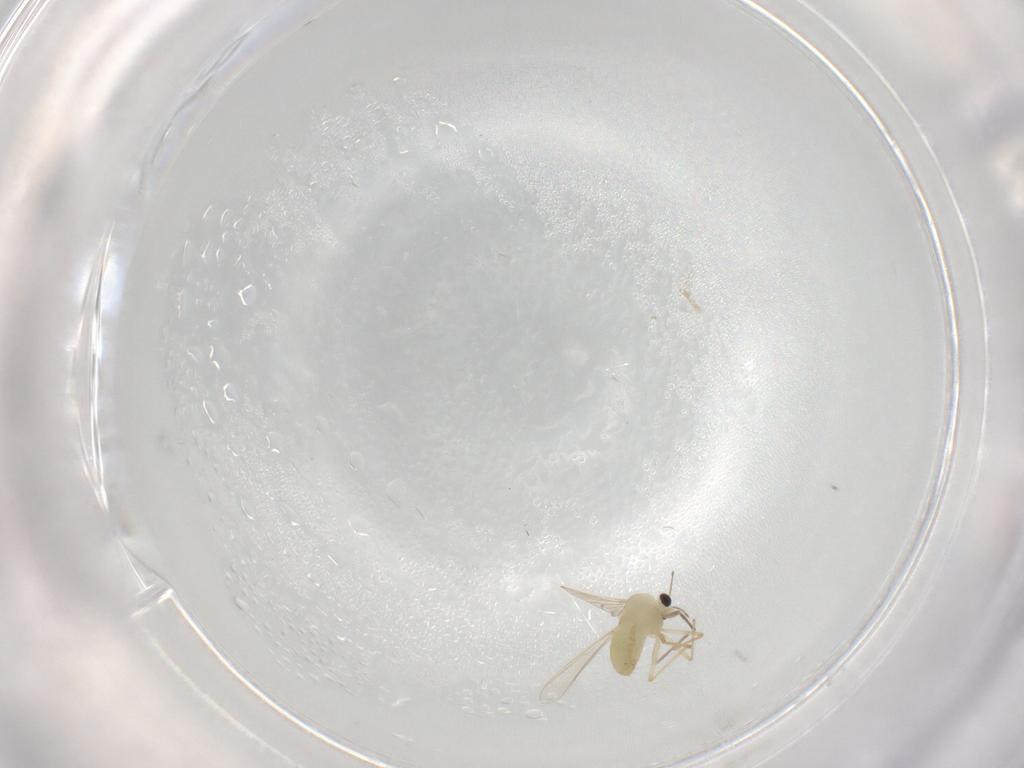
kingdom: Animalia
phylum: Arthropoda
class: Insecta
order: Diptera
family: Chironomidae
